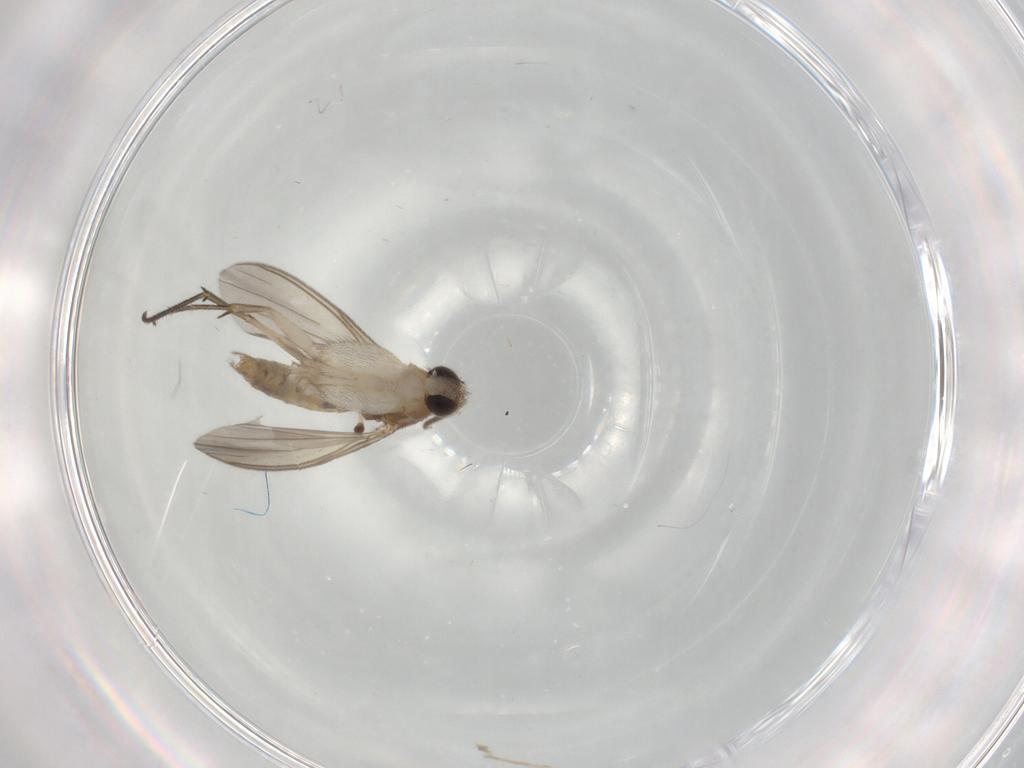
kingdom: Animalia
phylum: Arthropoda
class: Insecta
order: Diptera
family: Mycetophilidae
